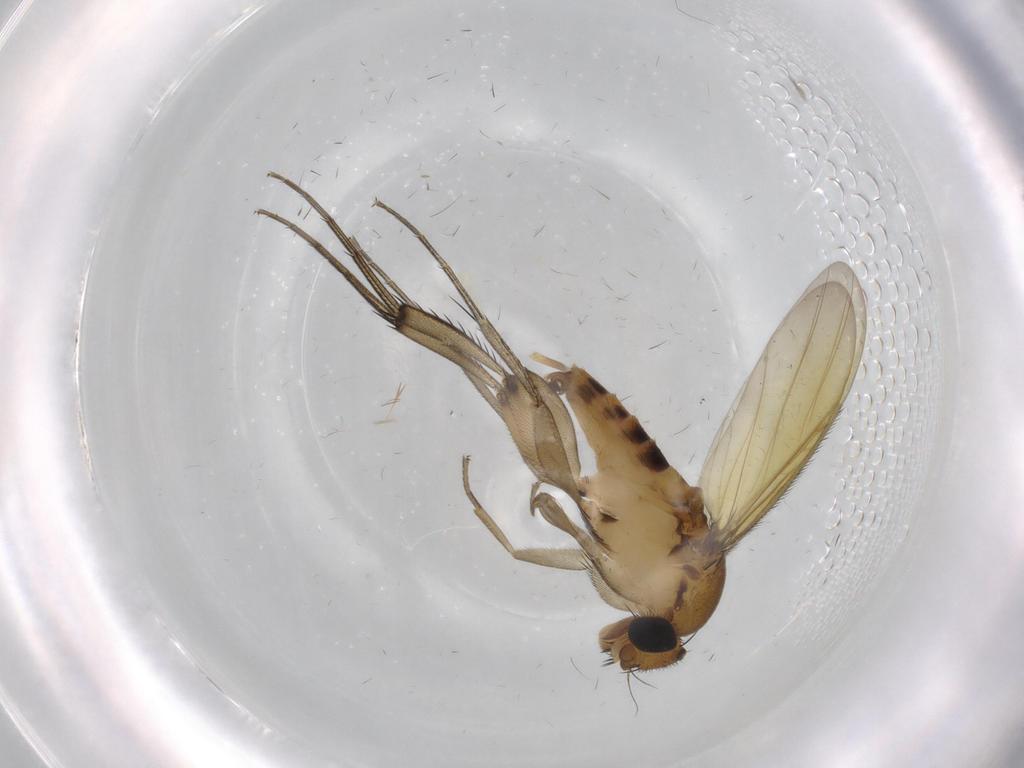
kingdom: Animalia
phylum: Arthropoda
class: Insecta
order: Diptera
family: Phoridae
